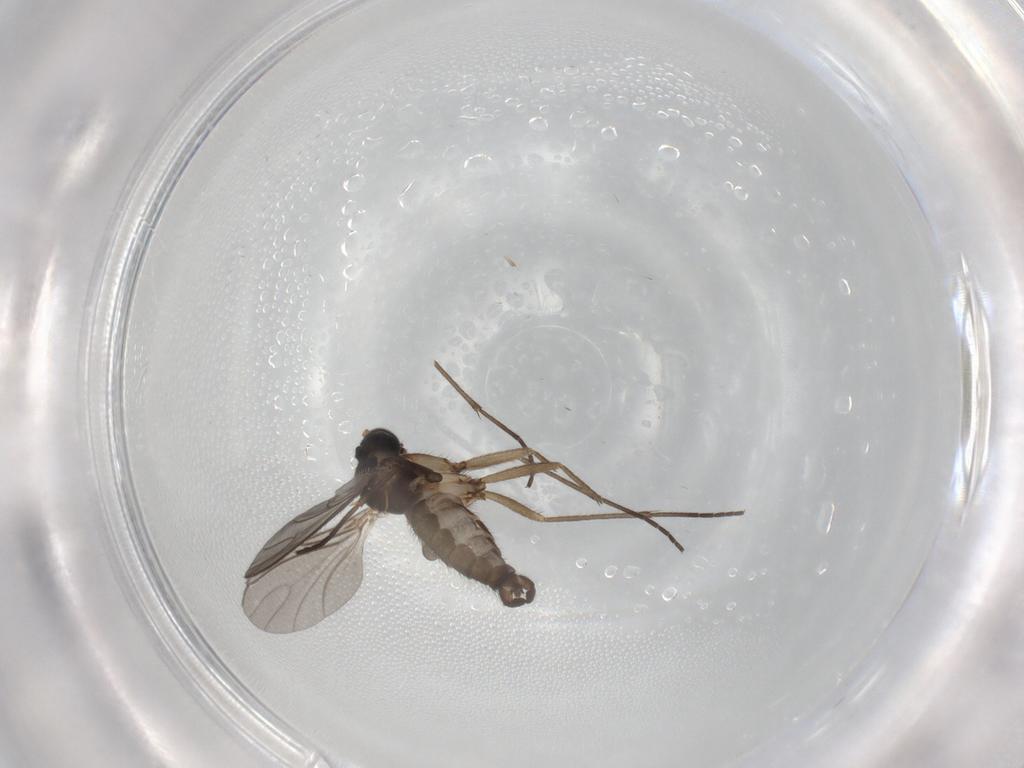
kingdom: Animalia
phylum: Arthropoda
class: Insecta
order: Diptera
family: Sciaridae
